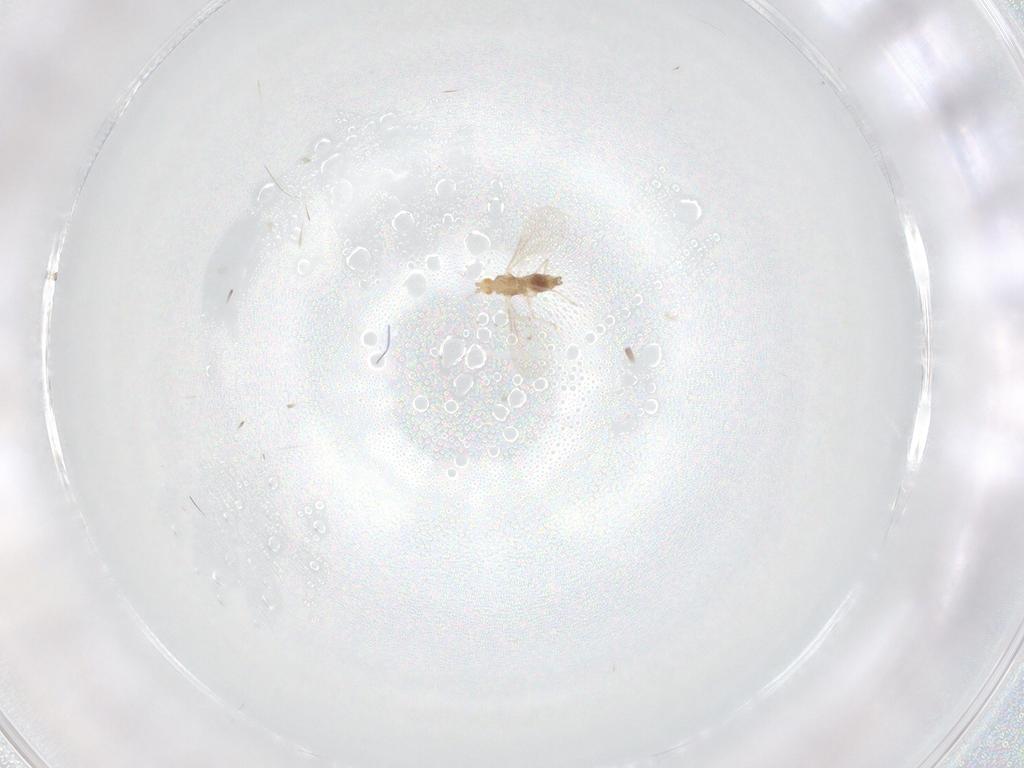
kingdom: Animalia
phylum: Arthropoda
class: Insecta
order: Diptera
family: Cecidomyiidae
